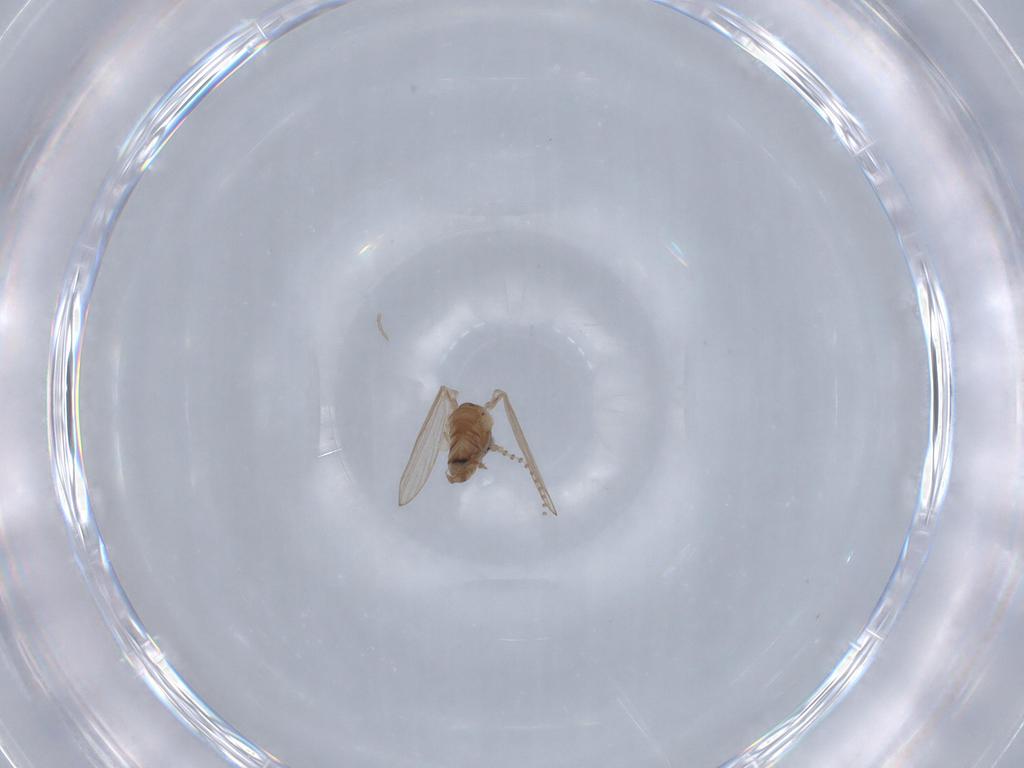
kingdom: Animalia
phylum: Arthropoda
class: Insecta
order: Diptera
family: Psychodidae
